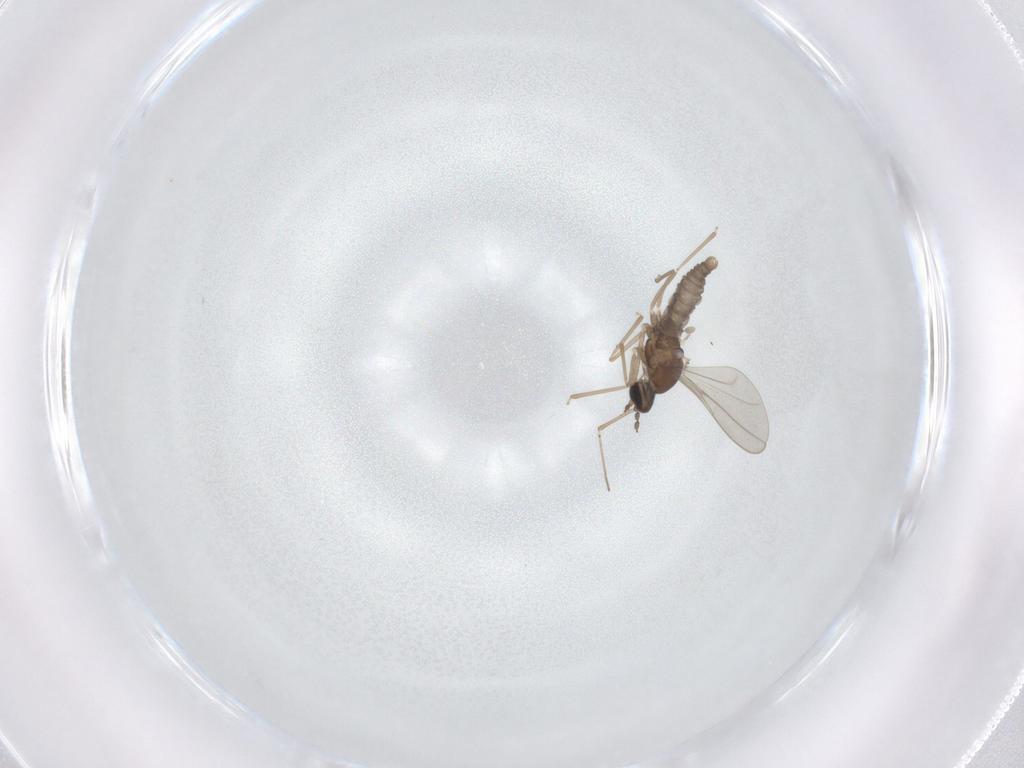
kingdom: Animalia
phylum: Arthropoda
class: Insecta
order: Diptera
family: Cecidomyiidae
